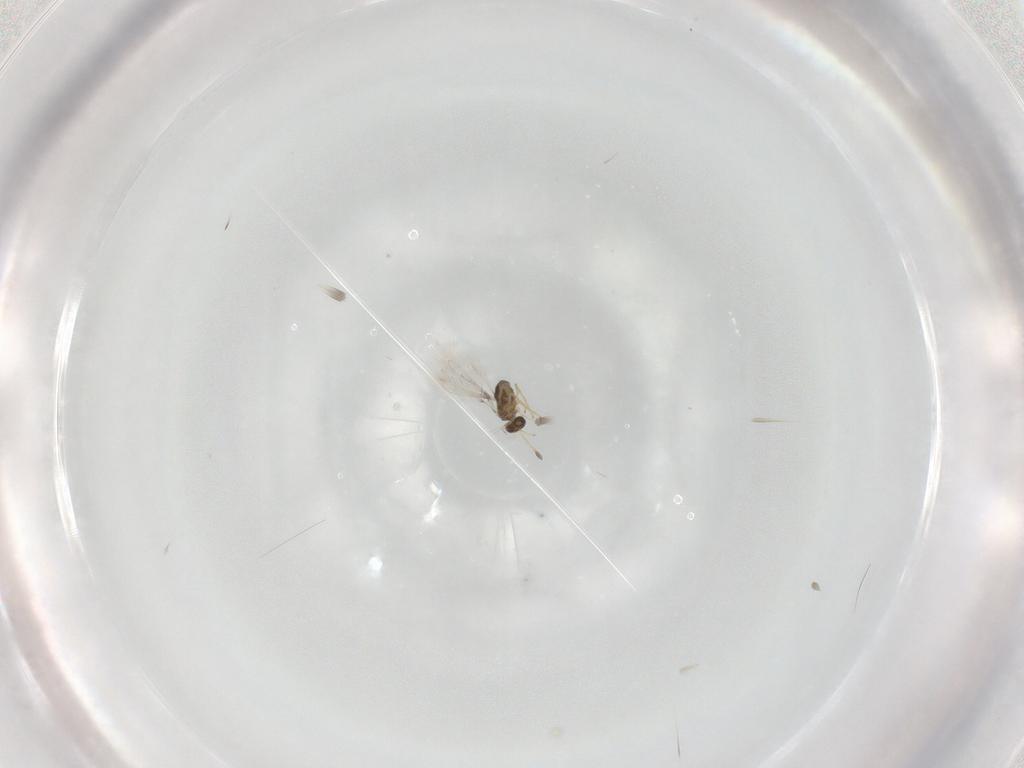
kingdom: Animalia
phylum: Arthropoda
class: Insecta
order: Hymenoptera
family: Mymaridae
